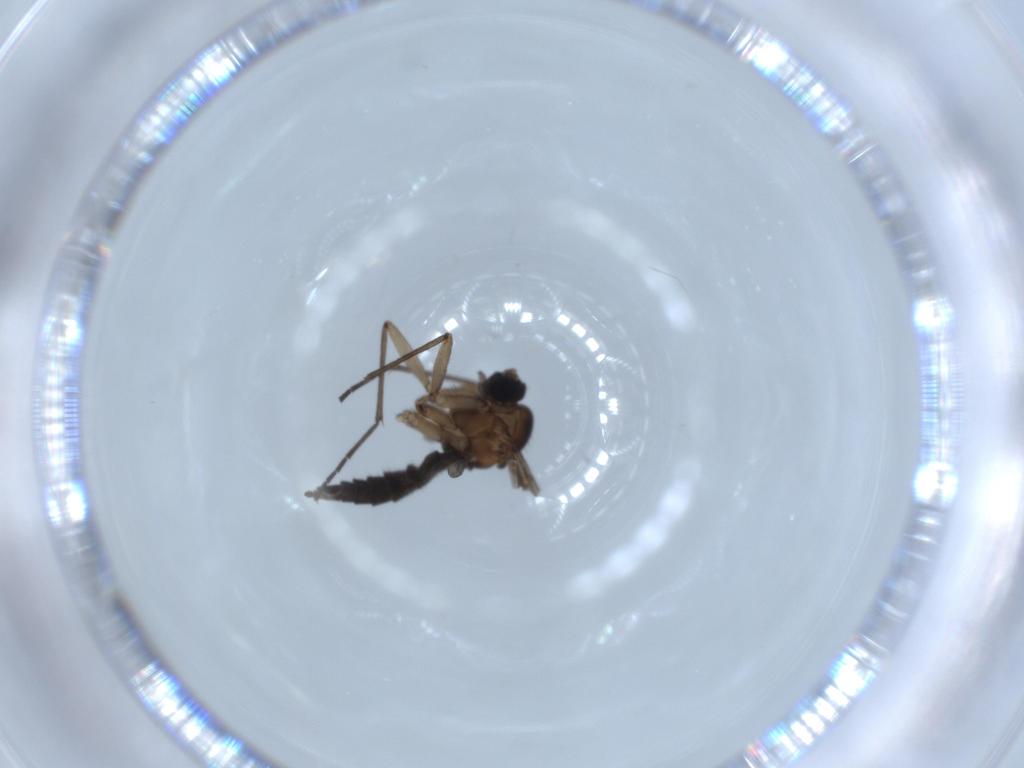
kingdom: Animalia
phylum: Arthropoda
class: Insecta
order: Diptera
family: Sciaridae
